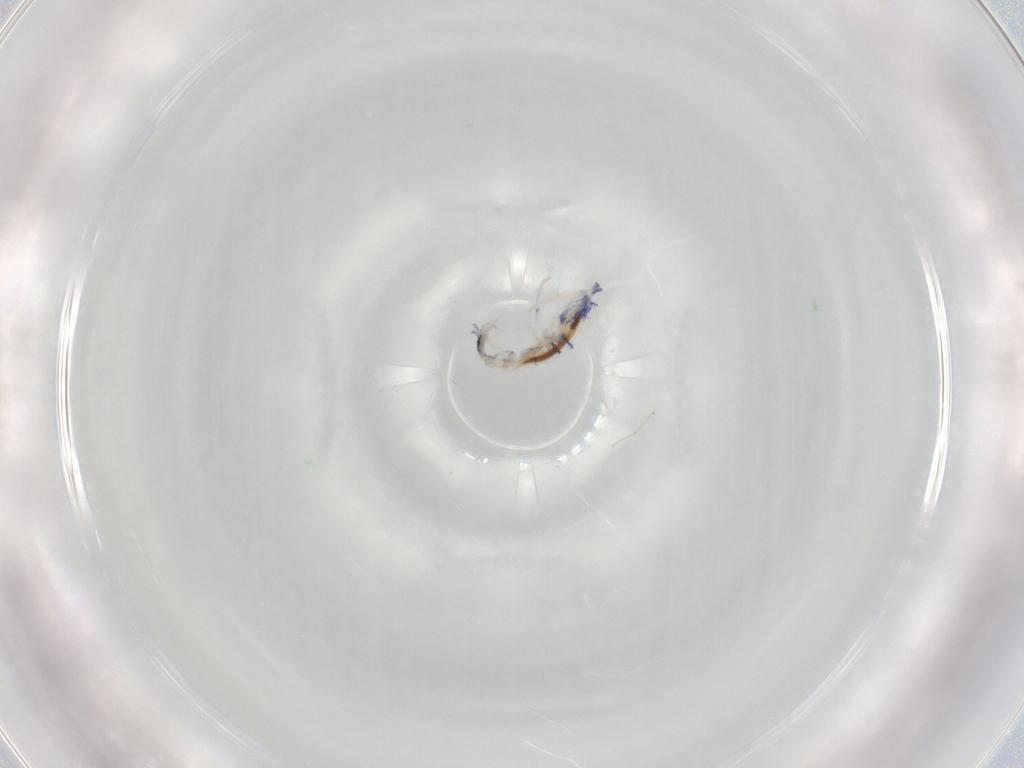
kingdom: Animalia
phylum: Arthropoda
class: Collembola
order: Entomobryomorpha
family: Entomobryidae
